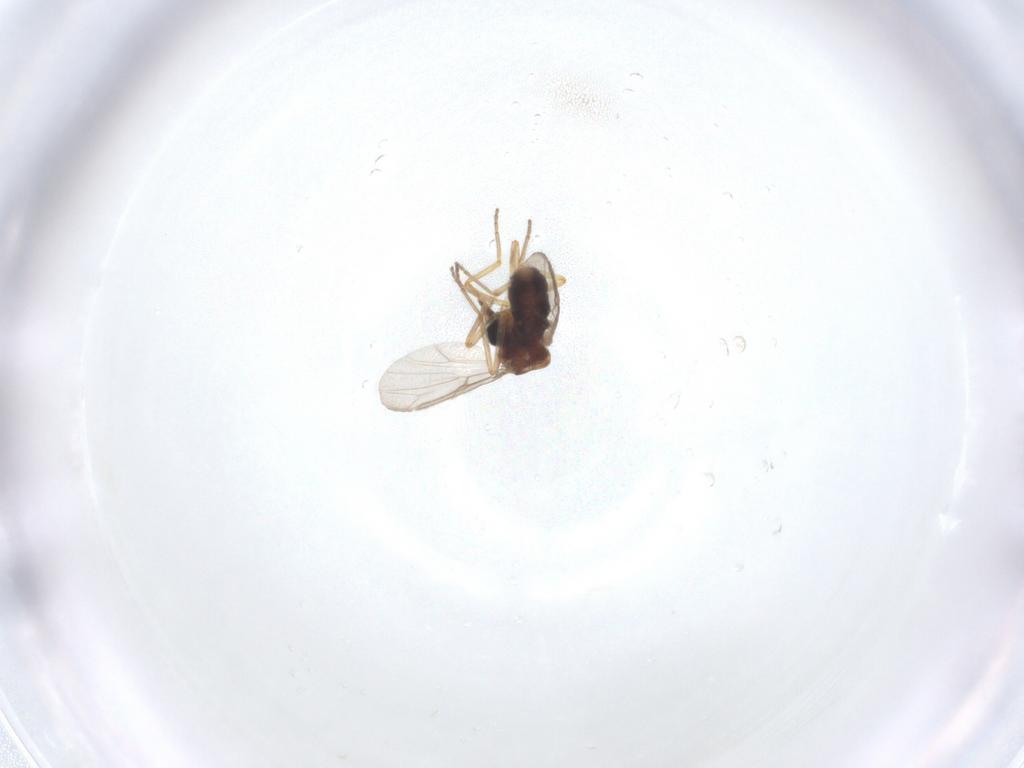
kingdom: Animalia
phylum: Arthropoda
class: Insecta
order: Diptera
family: Ceratopogonidae
